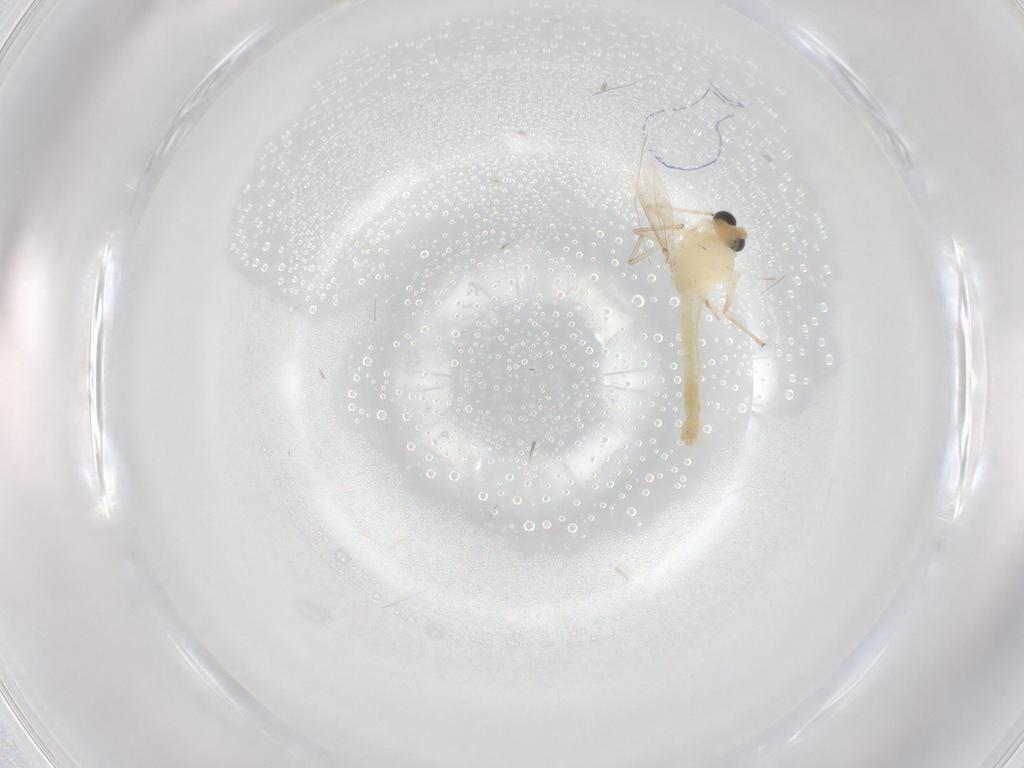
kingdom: Animalia
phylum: Arthropoda
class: Insecta
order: Diptera
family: Chironomidae
